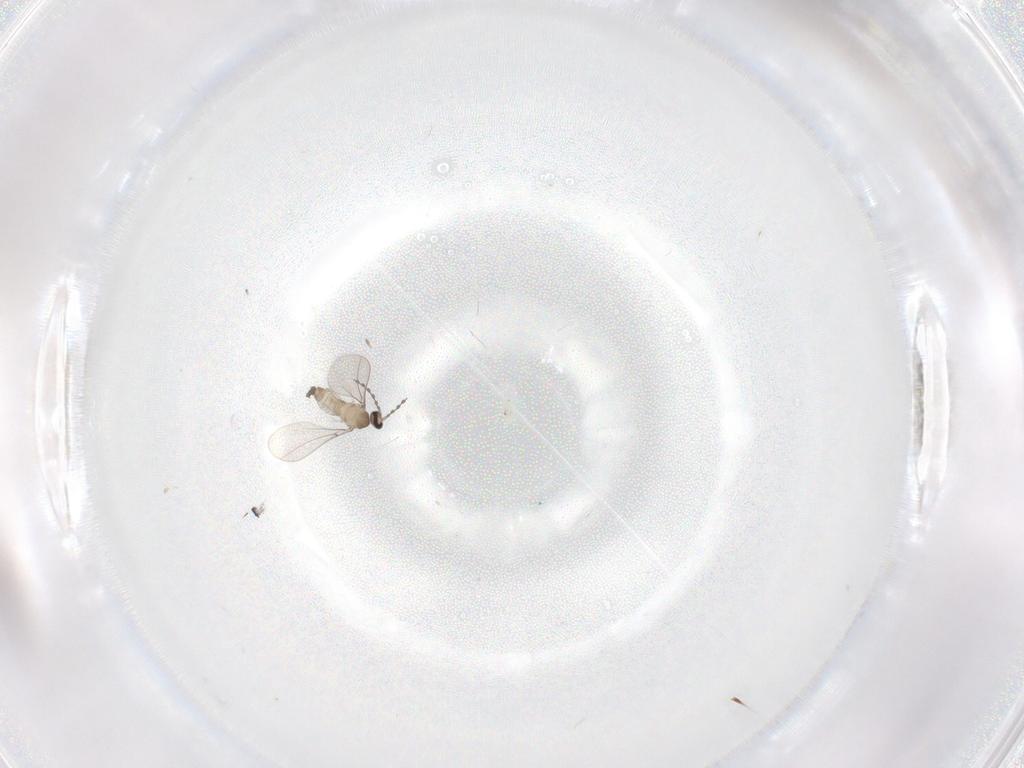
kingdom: Animalia
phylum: Arthropoda
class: Insecta
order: Diptera
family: Cecidomyiidae
